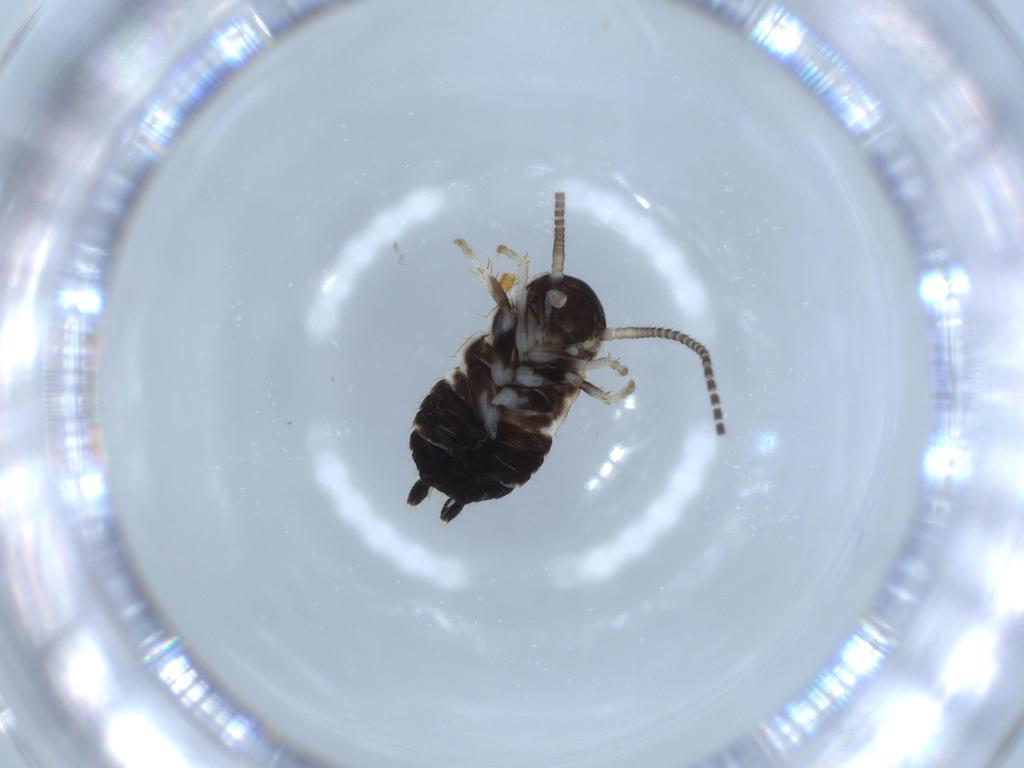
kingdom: Animalia
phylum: Arthropoda
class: Insecta
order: Blattodea
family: Ectobiidae
